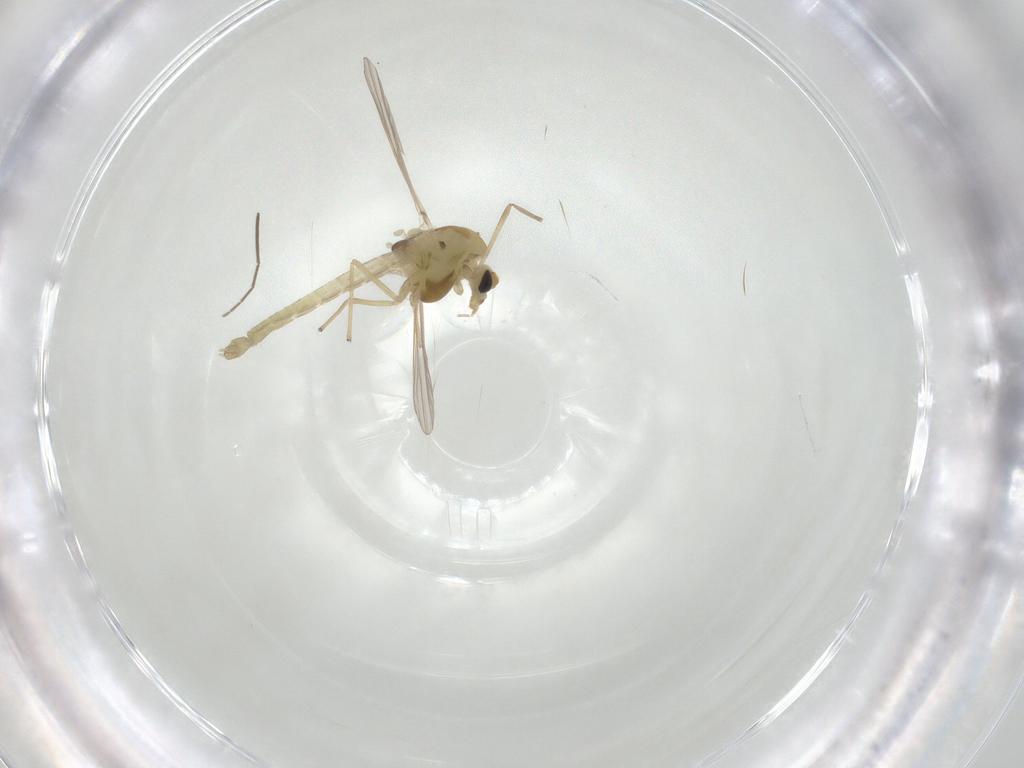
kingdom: Animalia
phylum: Arthropoda
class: Insecta
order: Diptera
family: Chironomidae
